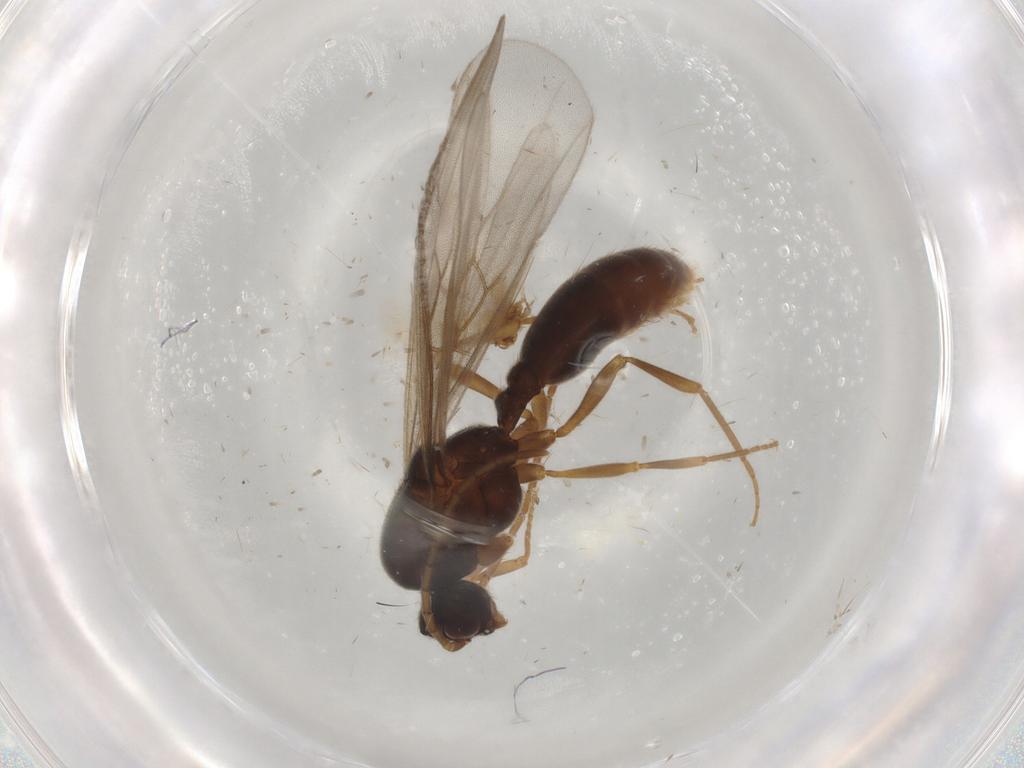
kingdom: Animalia
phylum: Arthropoda
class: Insecta
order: Hymenoptera
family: Formicidae
